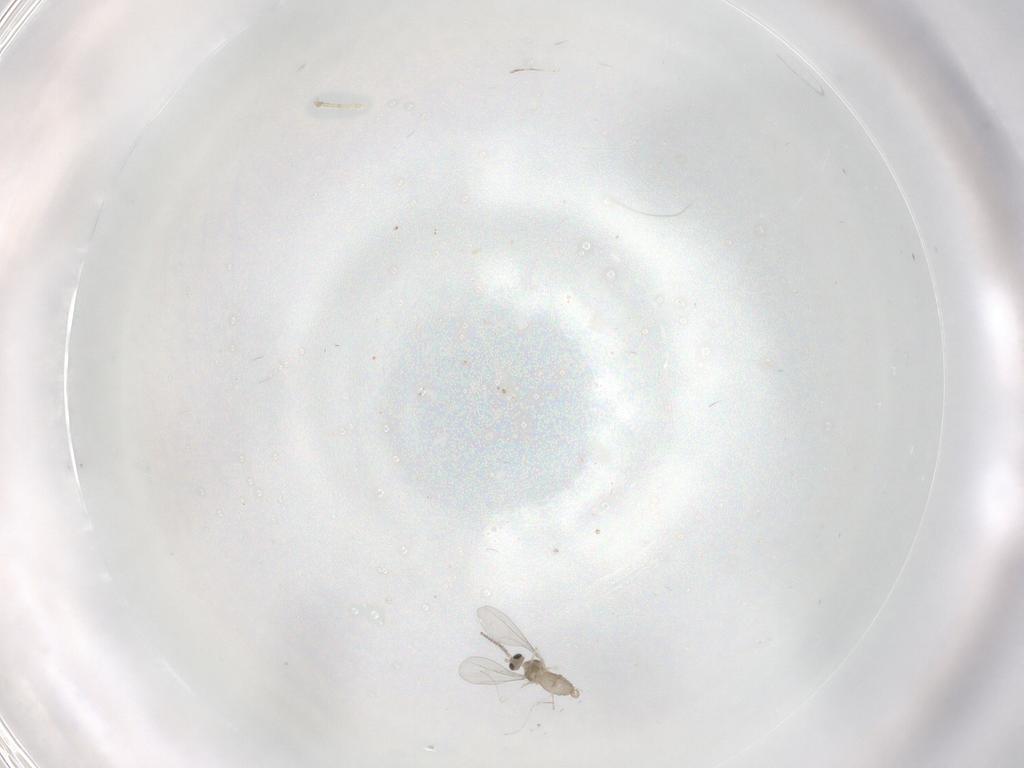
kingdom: Animalia
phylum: Arthropoda
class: Insecta
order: Diptera
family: Cecidomyiidae
